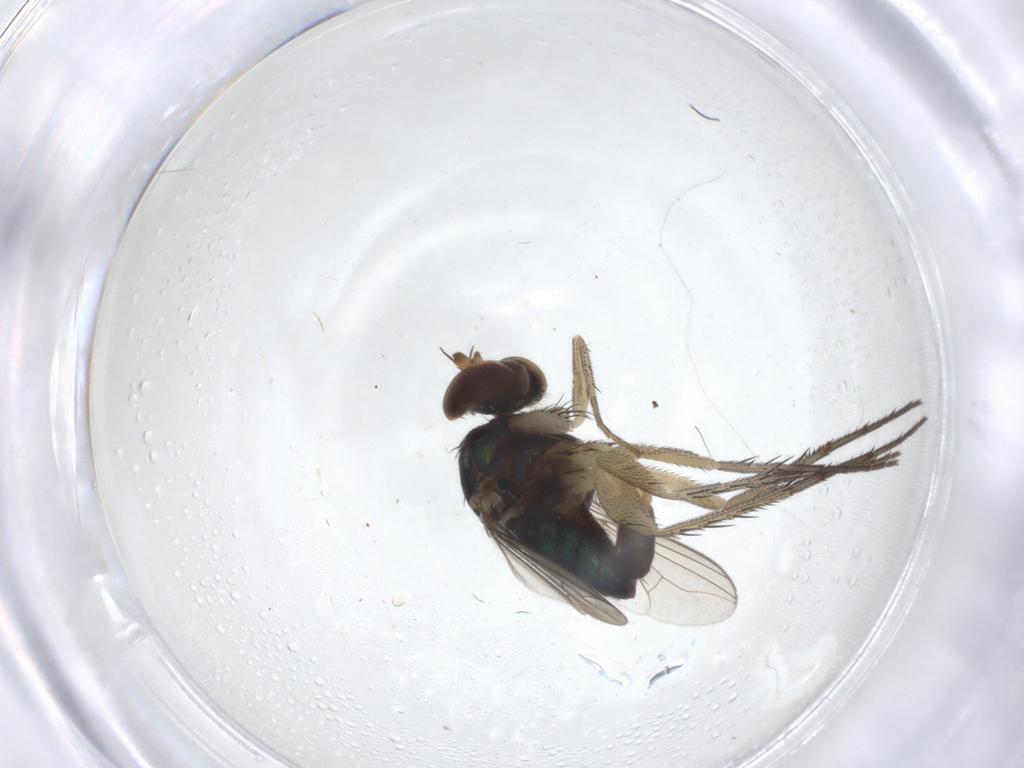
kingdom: Animalia
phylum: Arthropoda
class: Insecta
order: Diptera
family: Dolichopodidae
